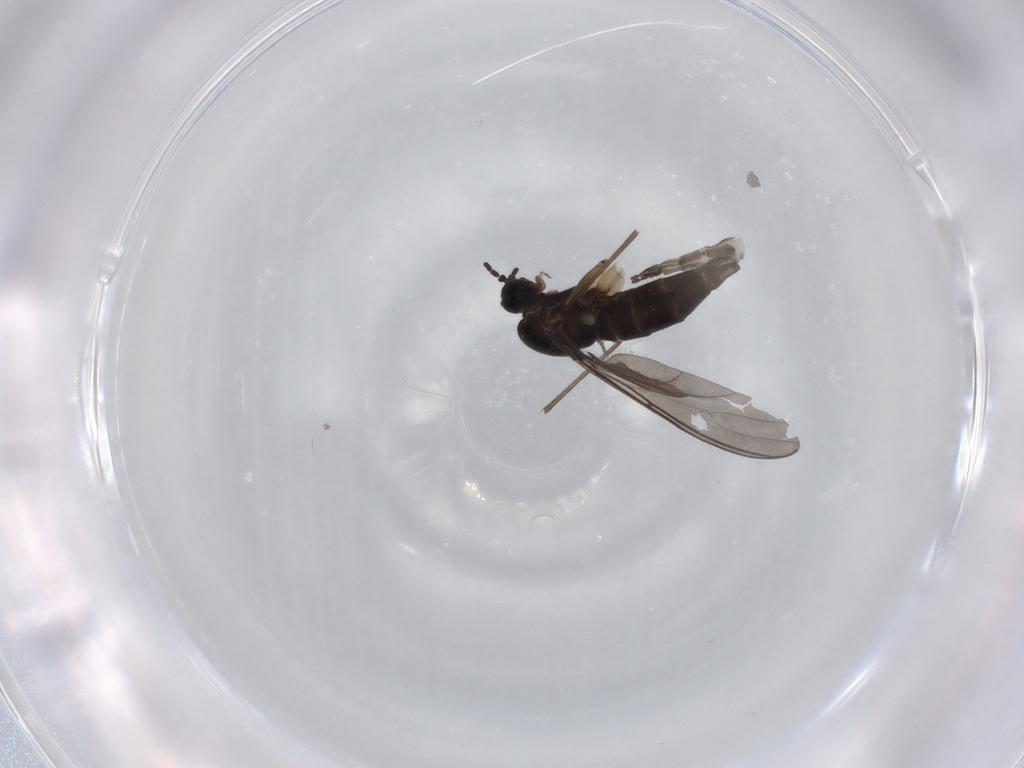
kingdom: Animalia
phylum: Arthropoda
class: Insecta
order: Diptera
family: Sciaridae
